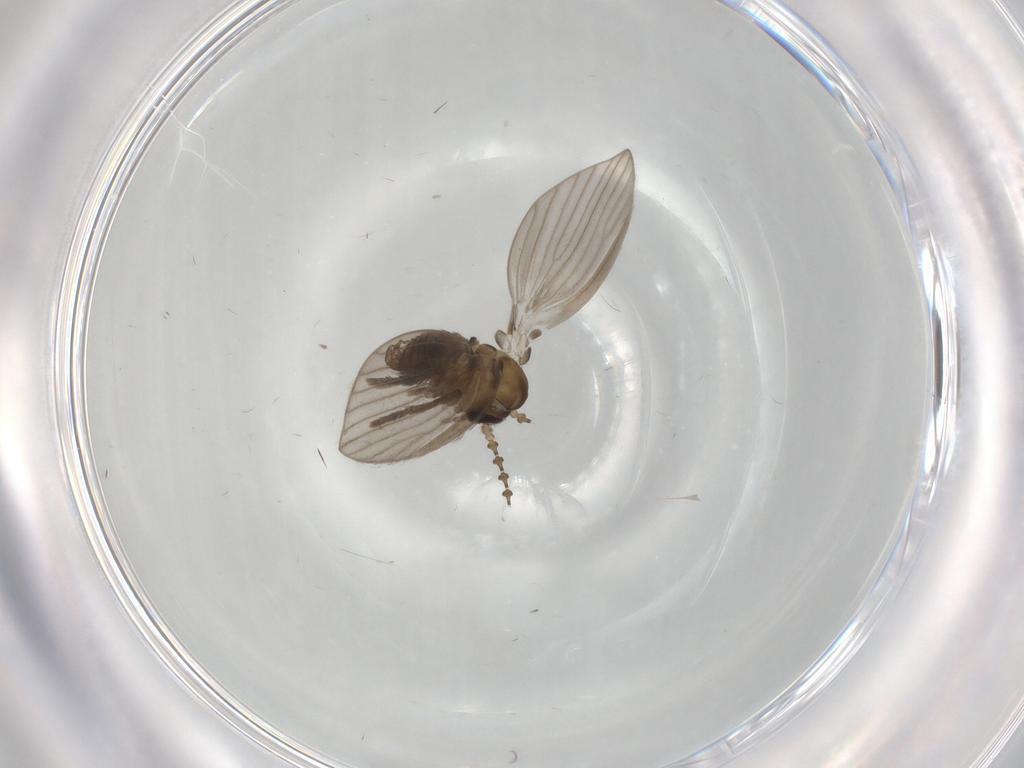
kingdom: Animalia
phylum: Arthropoda
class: Insecta
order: Diptera
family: Psychodidae
